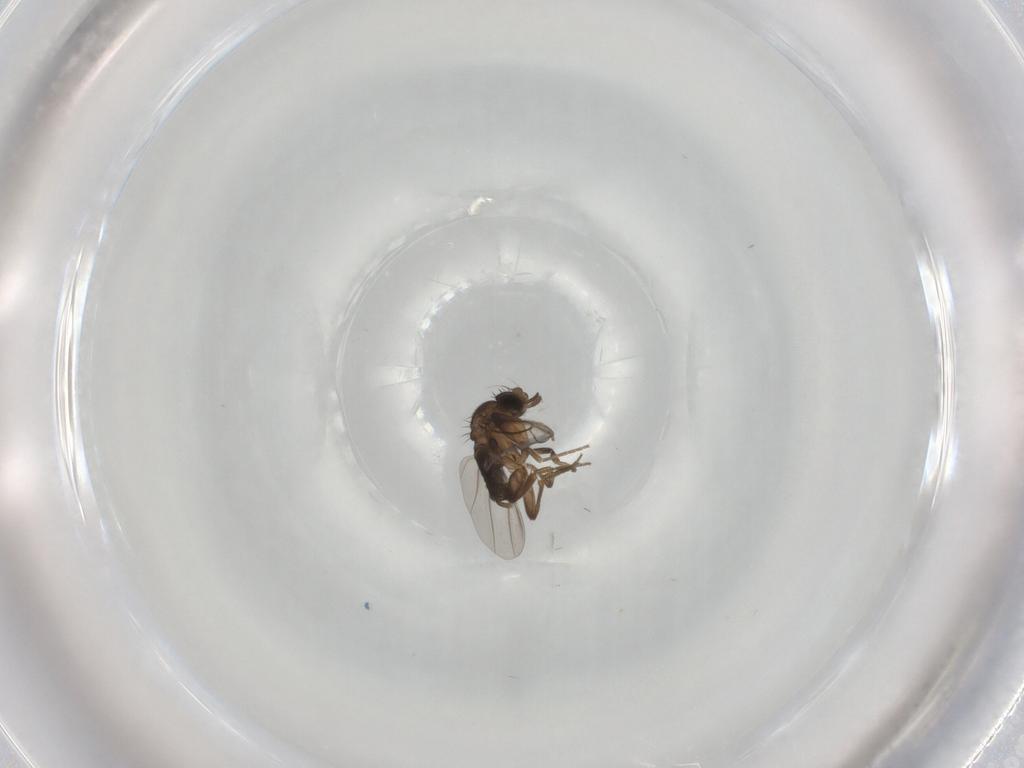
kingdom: Animalia
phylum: Arthropoda
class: Insecta
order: Diptera
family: Phoridae
